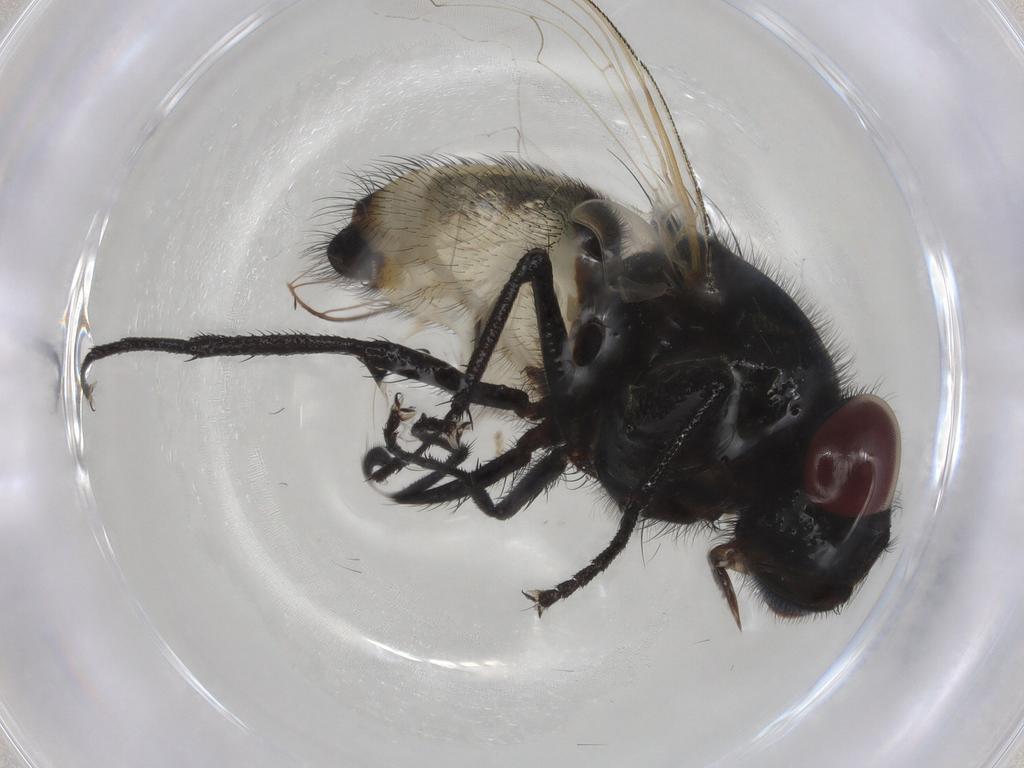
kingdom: Animalia
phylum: Arthropoda
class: Insecta
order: Diptera
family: Muscidae
